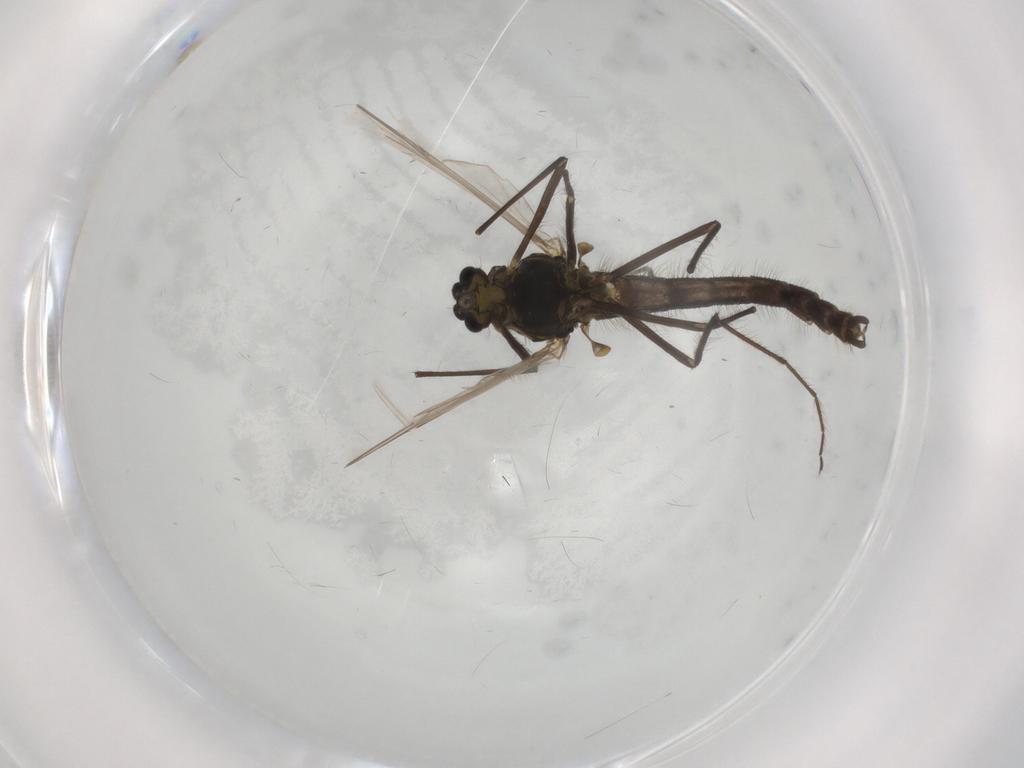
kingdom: Animalia
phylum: Arthropoda
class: Insecta
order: Diptera
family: Chironomidae
